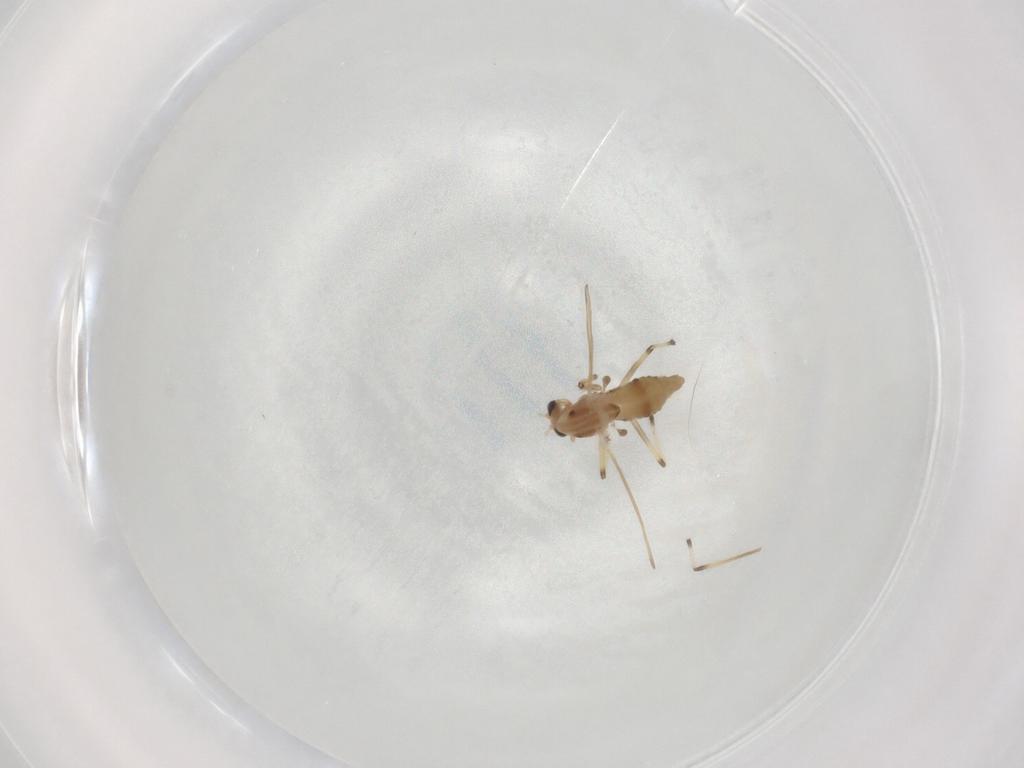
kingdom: Animalia
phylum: Arthropoda
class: Insecta
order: Diptera
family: Chironomidae
